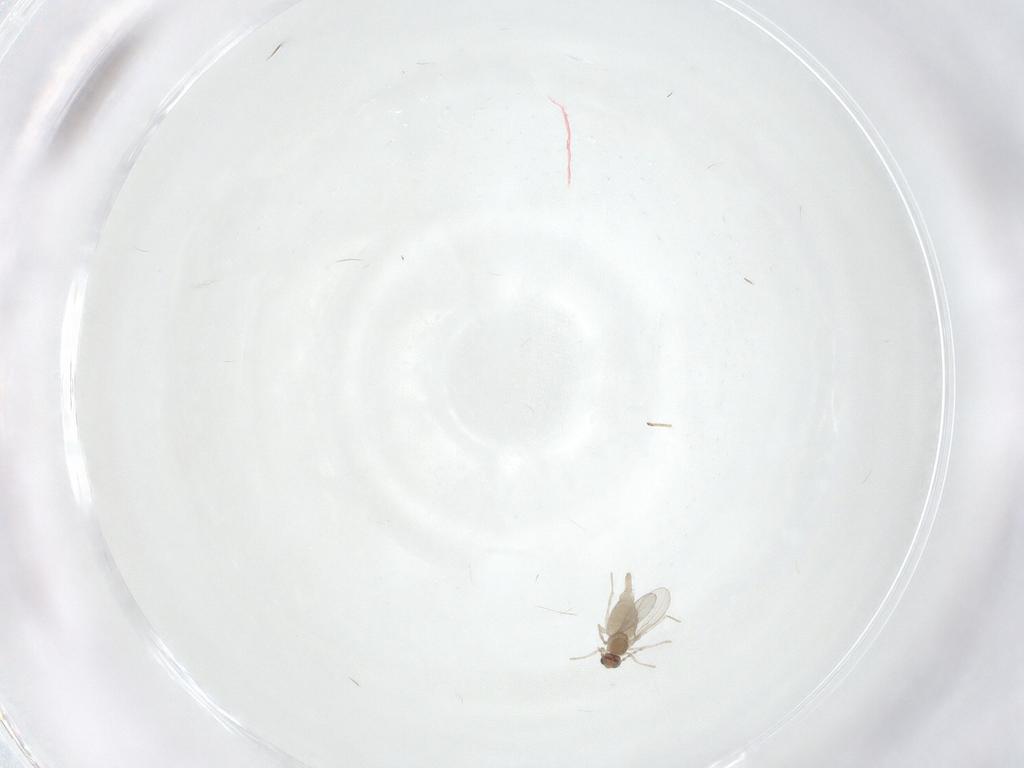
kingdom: Animalia
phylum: Arthropoda
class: Insecta
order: Diptera
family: Cecidomyiidae
